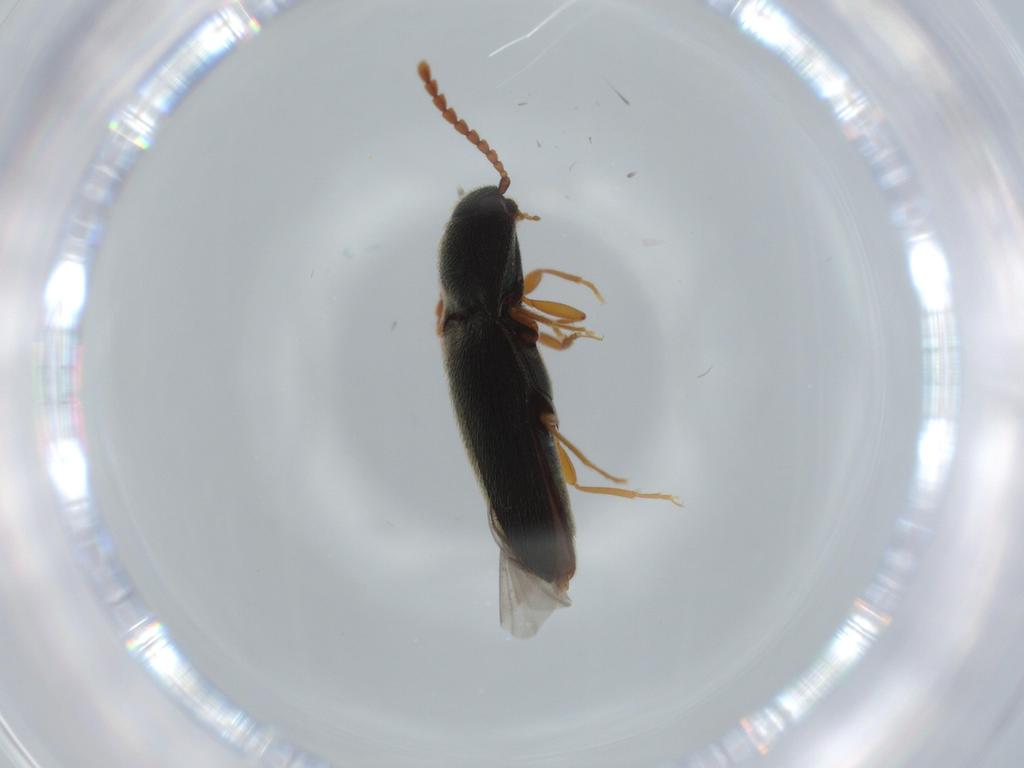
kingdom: Animalia
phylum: Arthropoda
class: Insecta
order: Coleoptera
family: Elateridae
